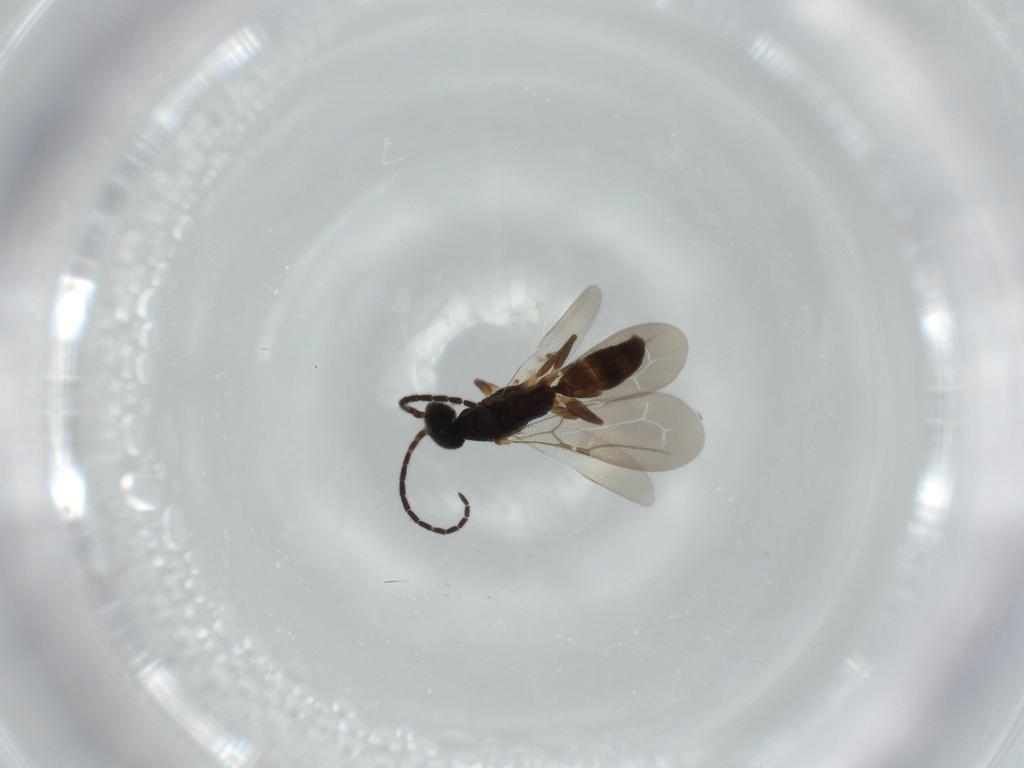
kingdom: Animalia
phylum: Arthropoda
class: Insecta
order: Hymenoptera
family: Bethylidae
